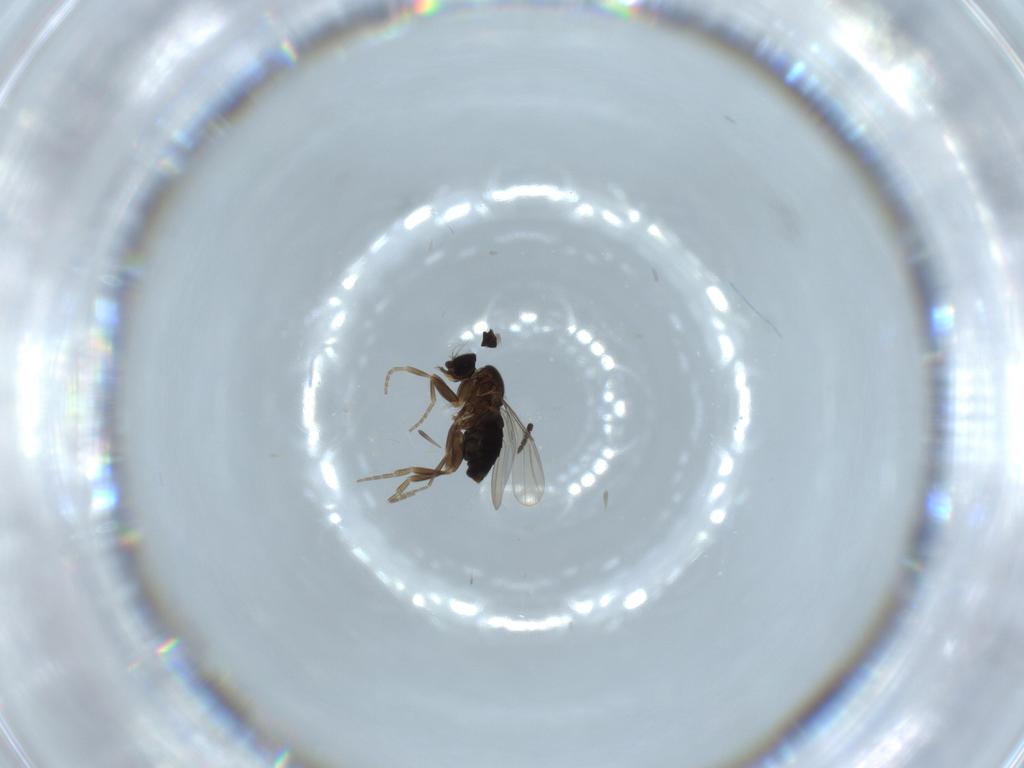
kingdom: Animalia
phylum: Arthropoda
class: Insecta
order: Diptera
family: Phoridae
